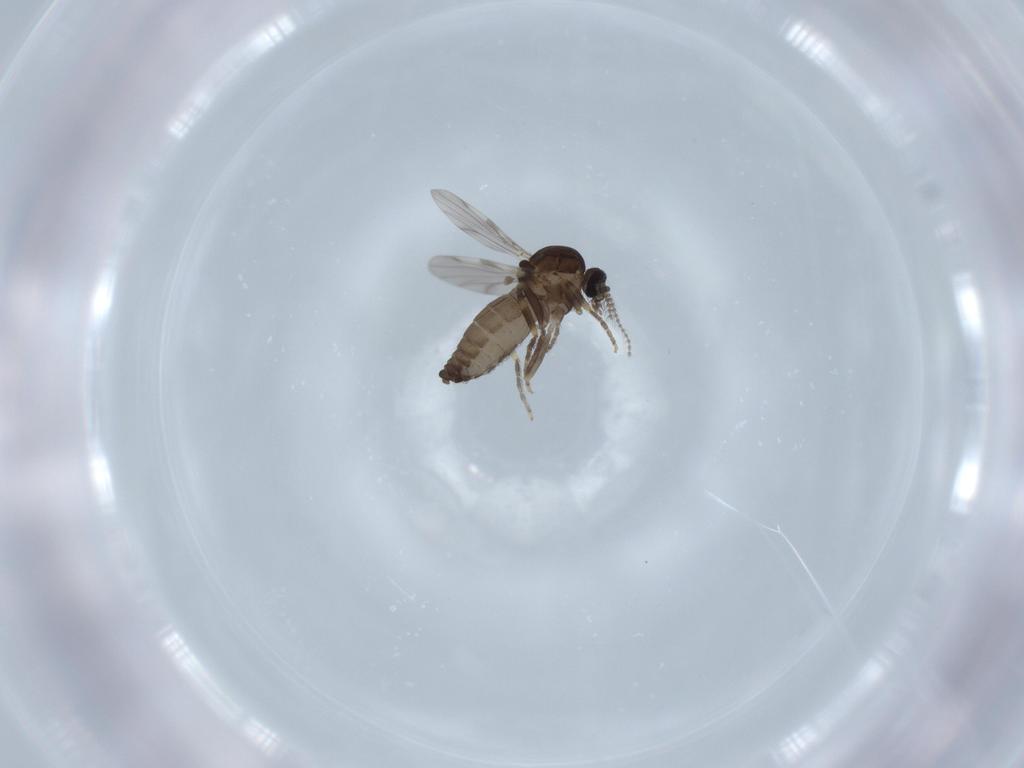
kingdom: Animalia
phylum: Arthropoda
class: Insecta
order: Diptera
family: Ceratopogonidae
